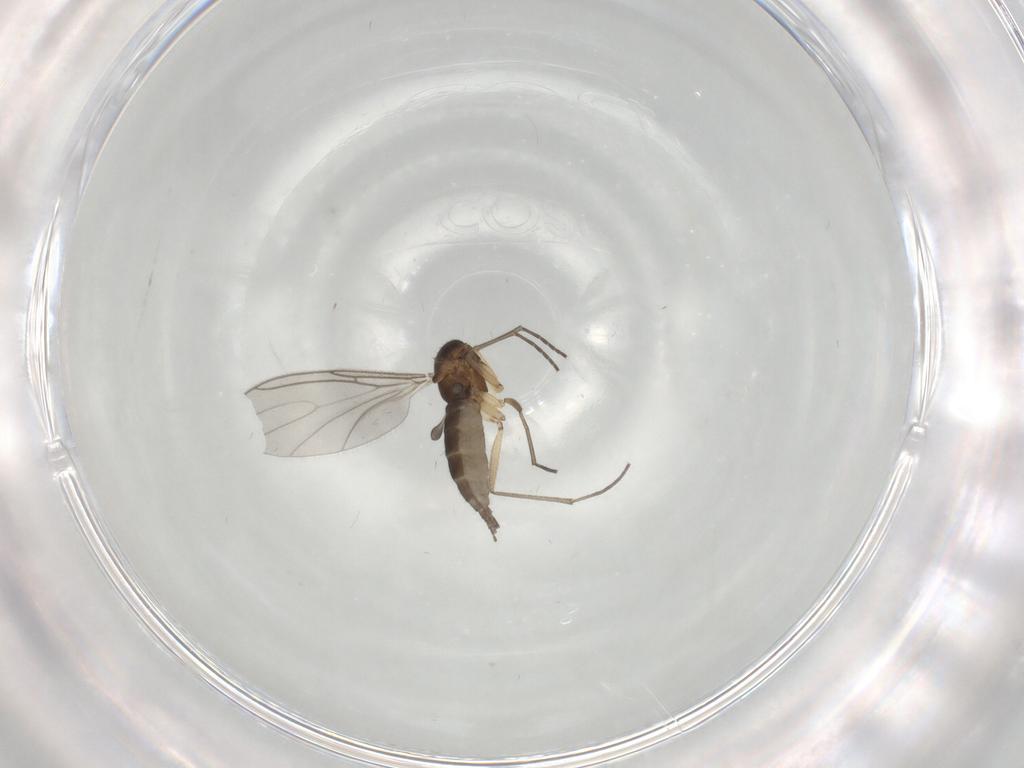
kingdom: Animalia
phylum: Arthropoda
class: Insecta
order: Diptera
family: Sciaridae
